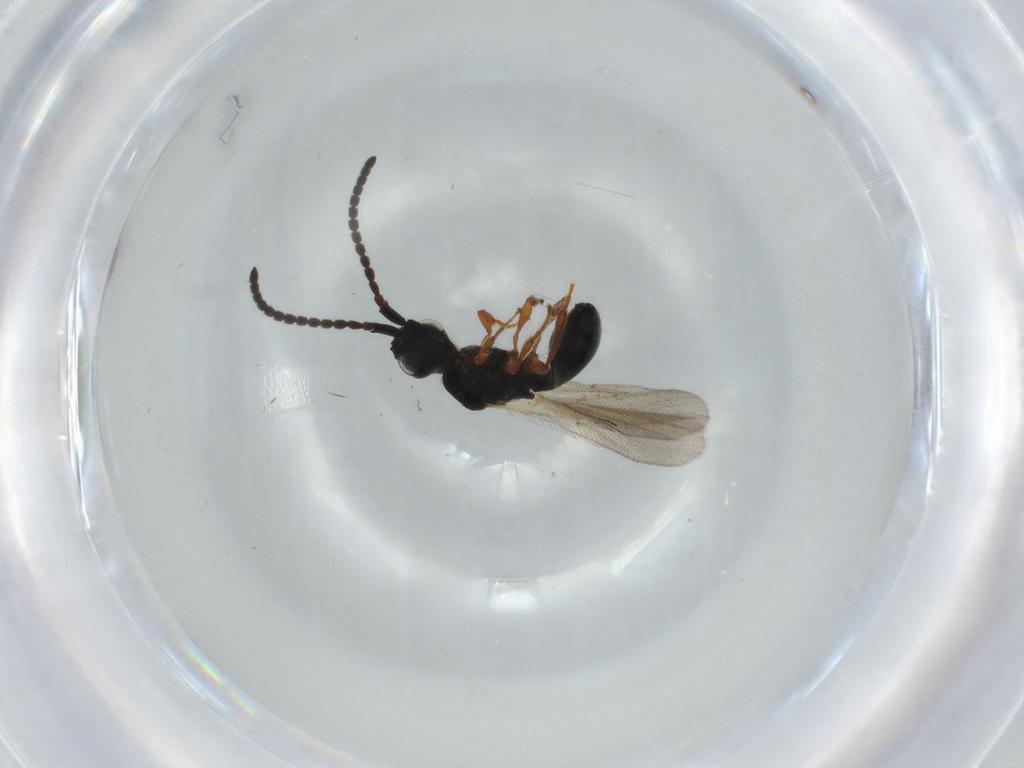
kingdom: Animalia
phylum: Arthropoda
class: Insecta
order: Hymenoptera
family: Diapriidae
